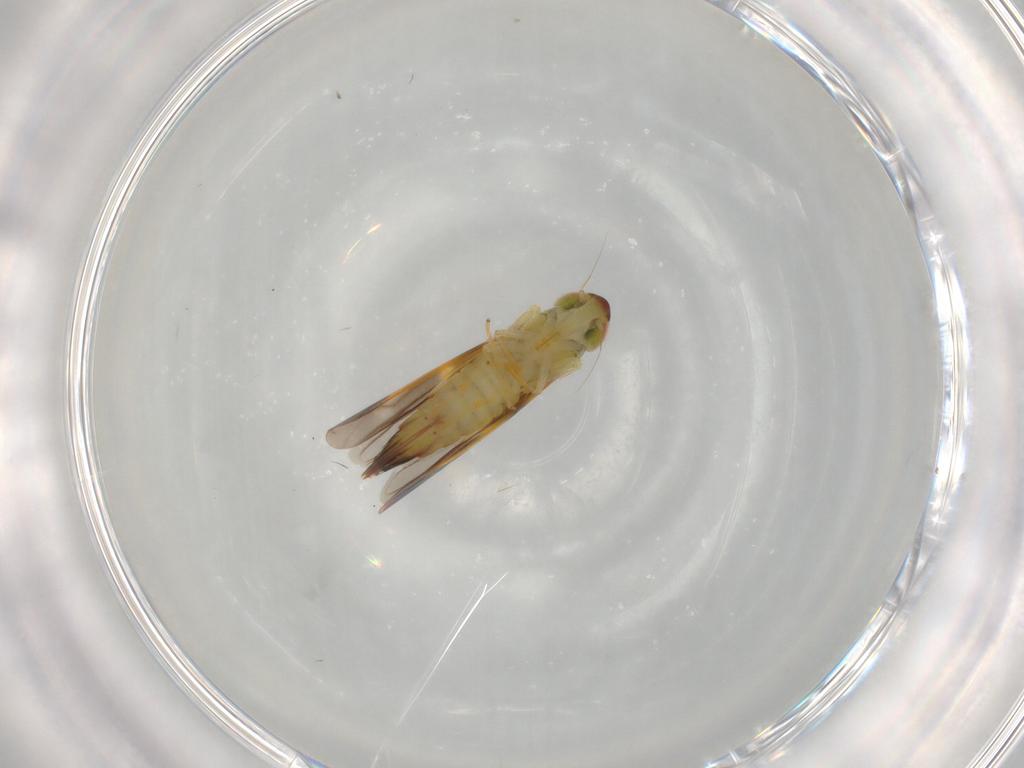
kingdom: Animalia
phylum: Arthropoda
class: Insecta
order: Hemiptera
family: Cicadellidae
